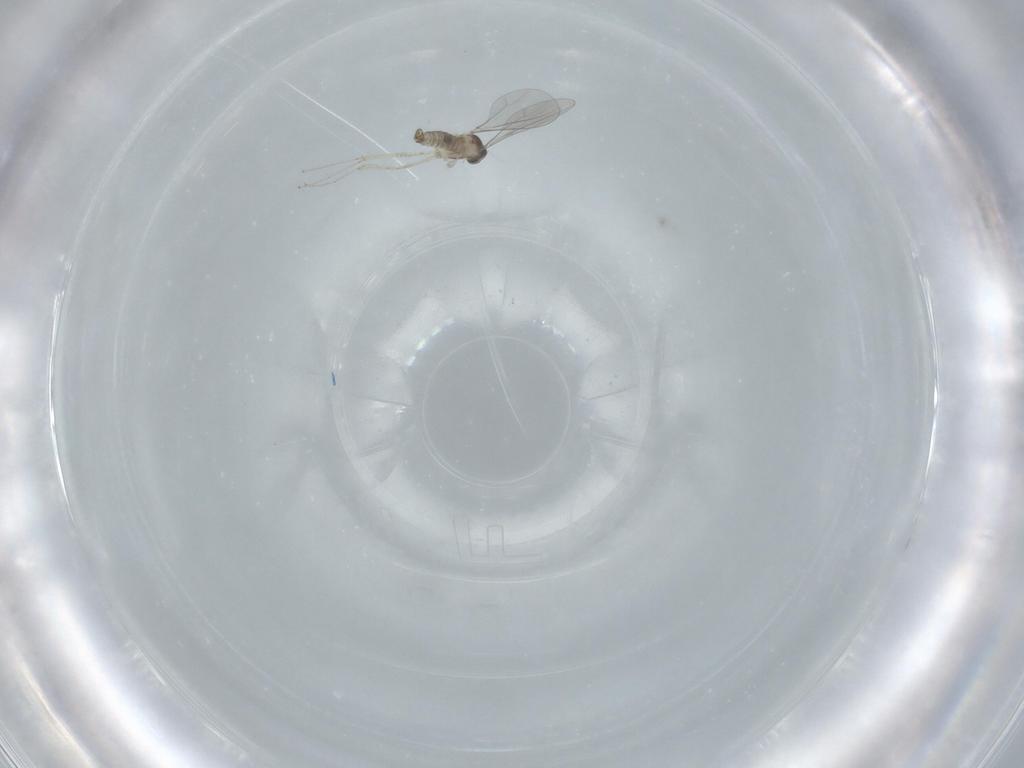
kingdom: Animalia
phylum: Arthropoda
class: Insecta
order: Diptera
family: Cecidomyiidae
